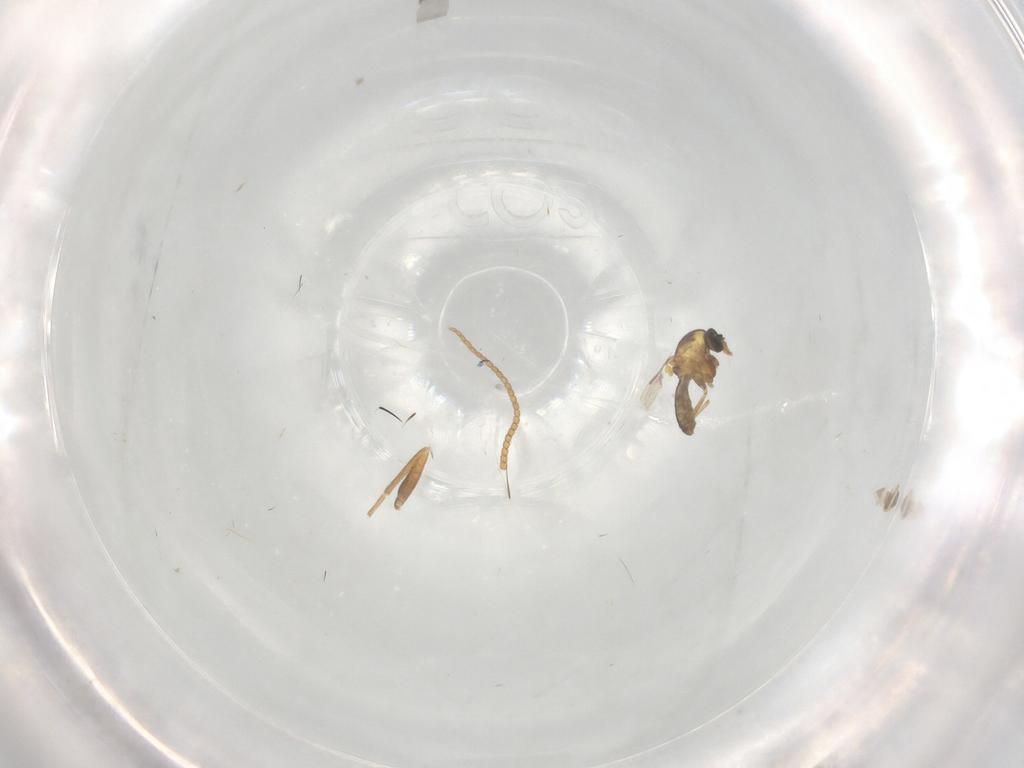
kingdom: Animalia
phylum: Arthropoda
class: Insecta
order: Diptera
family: Ceratopogonidae
